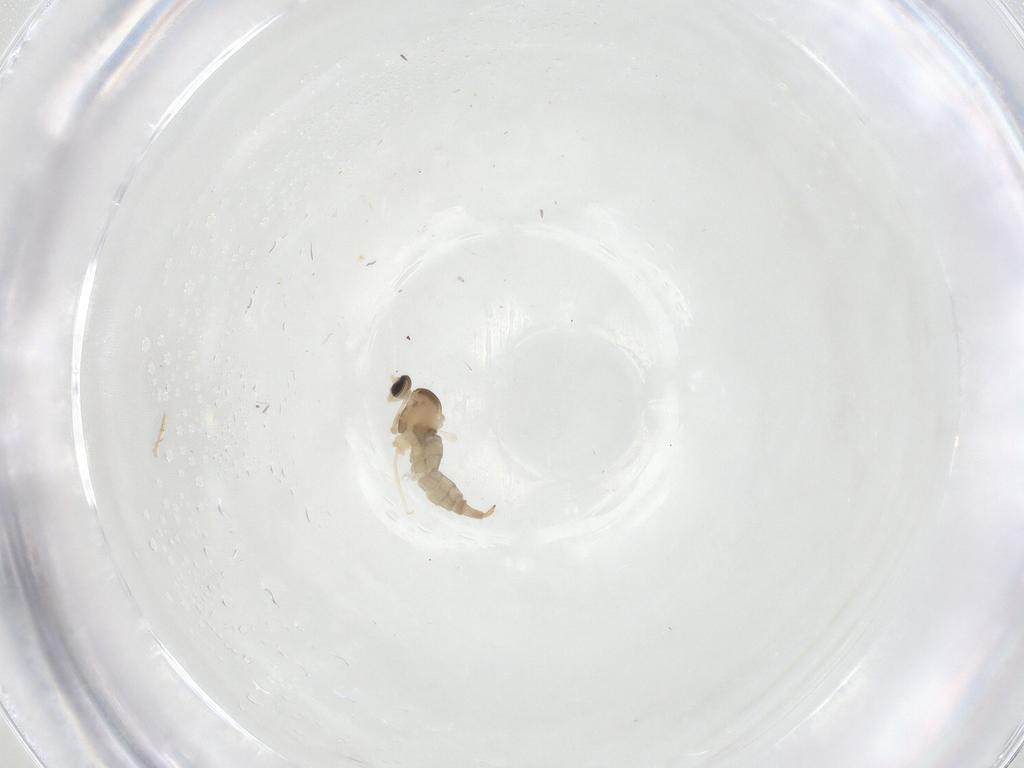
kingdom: Animalia
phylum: Arthropoda
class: Insecta
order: Diptera
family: Cecidomyiidae
